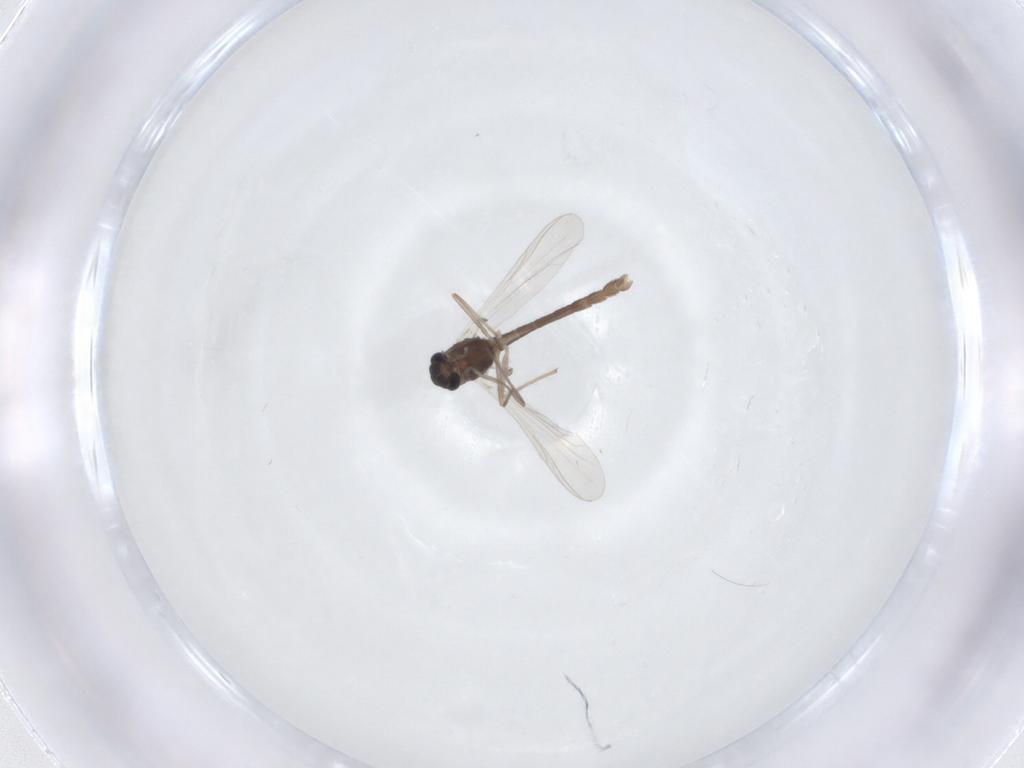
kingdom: Animalia
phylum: Arthropoda
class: Insecta
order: Diptera
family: Chironomidae
